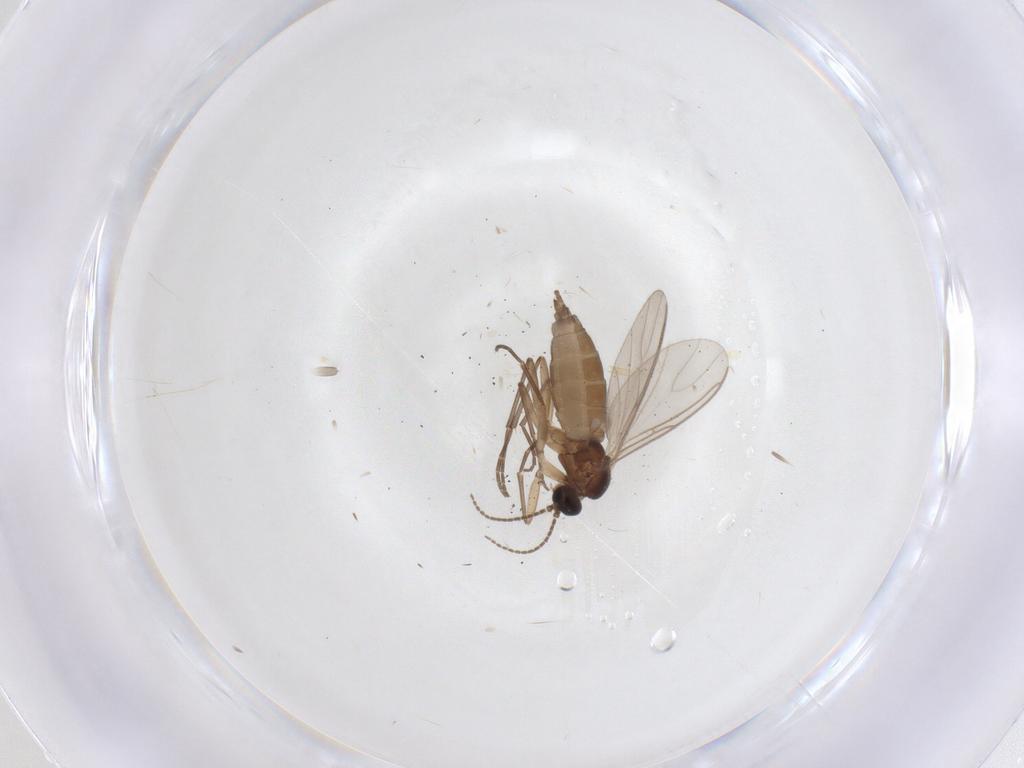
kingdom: Animalia
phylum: Arthropoda
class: Insecta
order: Diptera
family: Sciaridae
